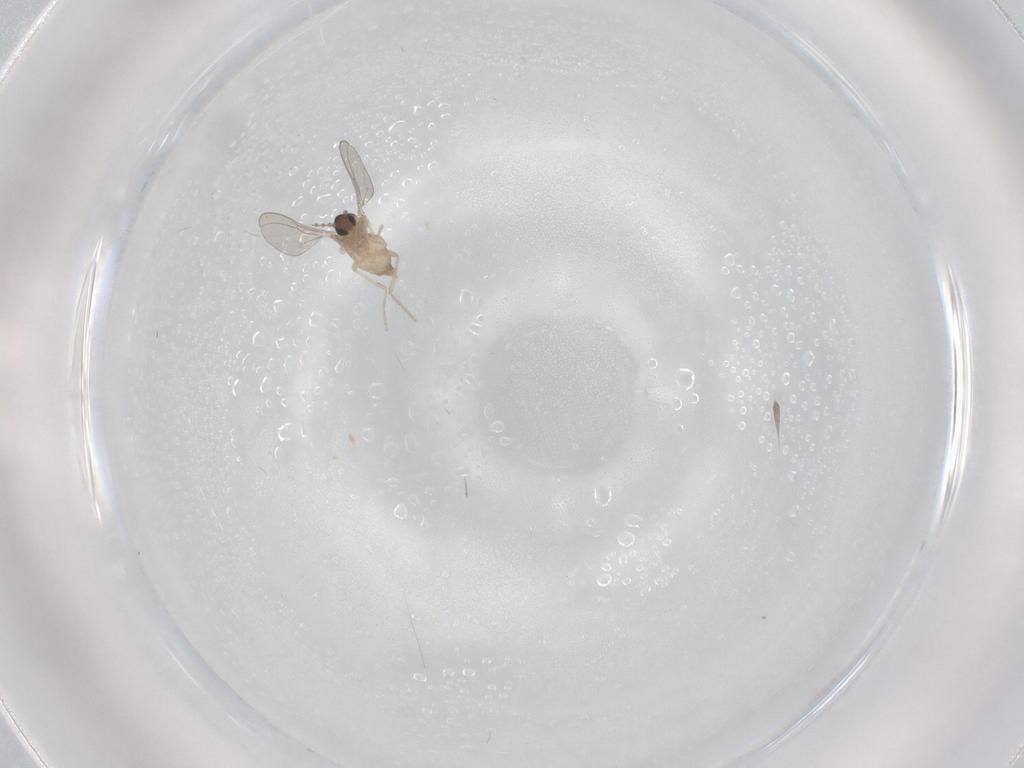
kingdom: Animalia
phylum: Arthropoda
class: Insecta
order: Diptera
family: Cecidomyiidae
